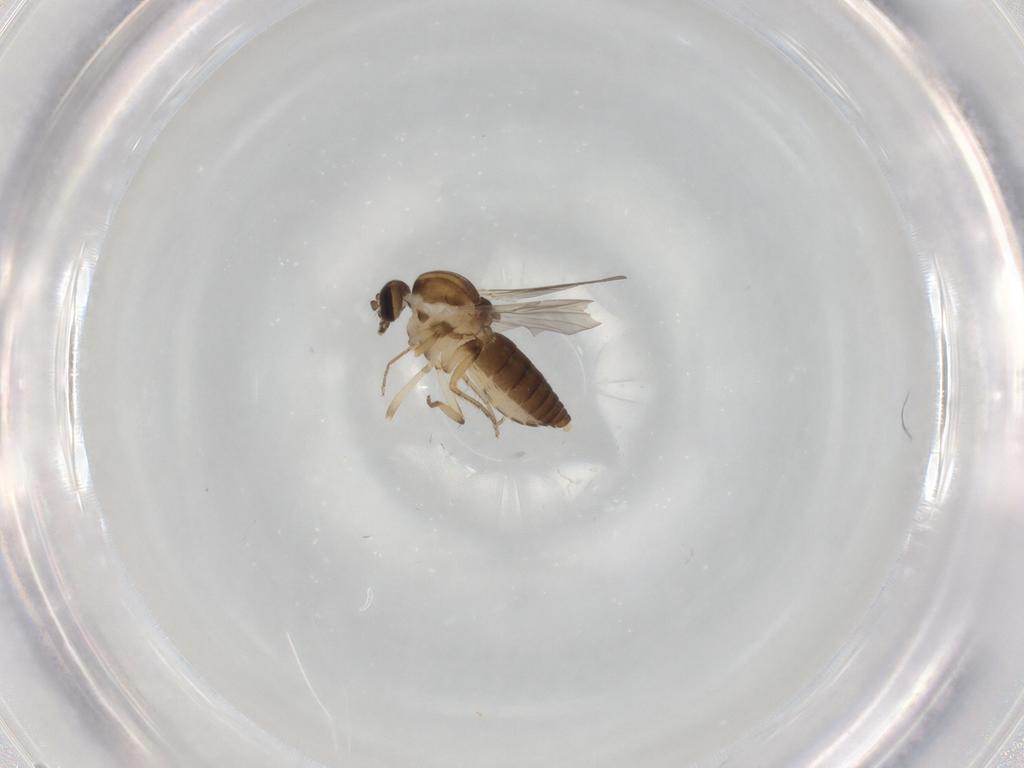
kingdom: Animalia
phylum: Arthropoda
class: Insecta
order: Diptera
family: Ceratopogonidae
